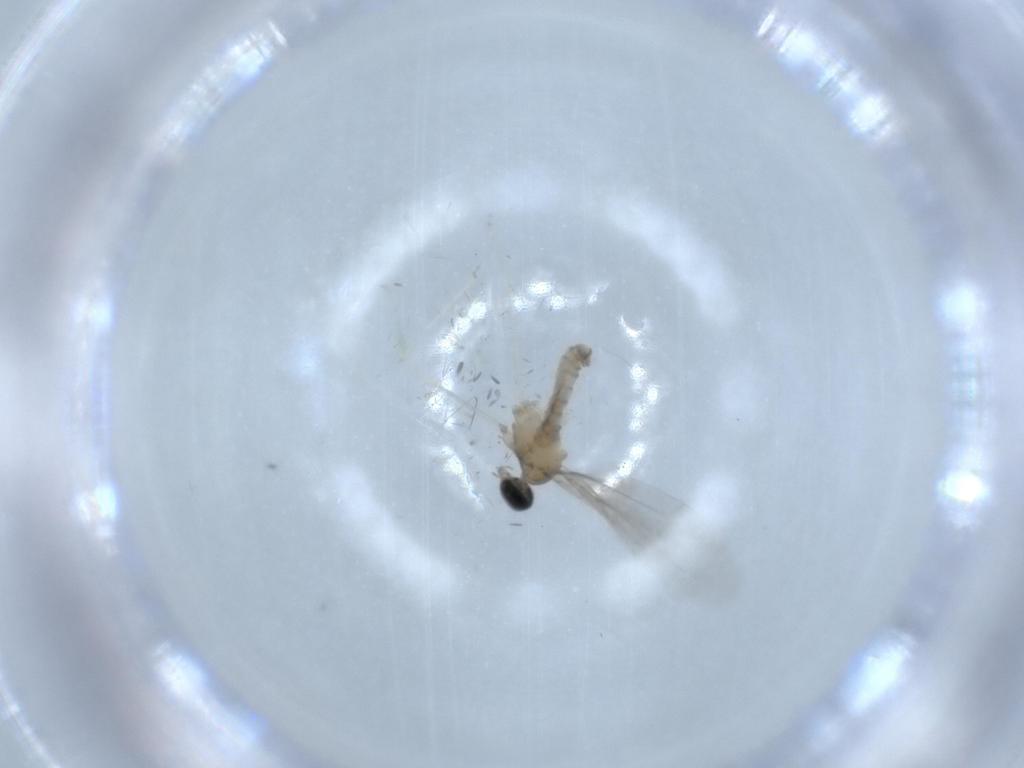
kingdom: Animalia
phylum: Arthropoda
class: Insecta
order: Diptera
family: Cecidomyiidae
